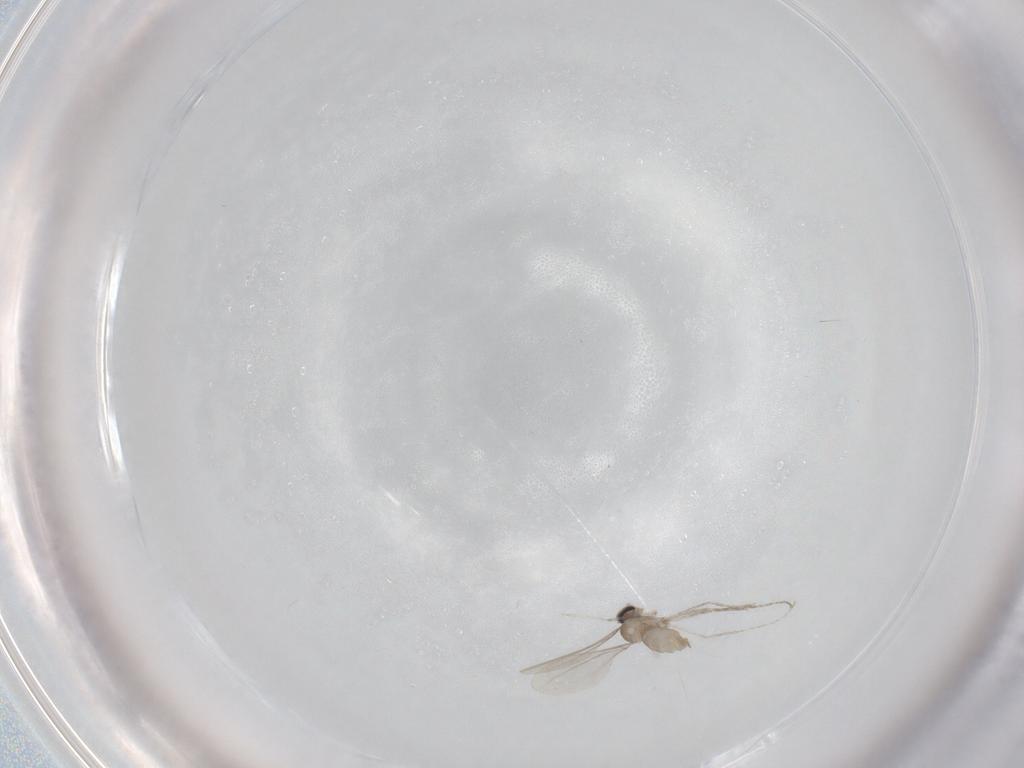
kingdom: Animalia
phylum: Arthropoda
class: Insecta
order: Diptera
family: Cecidomyiidae
